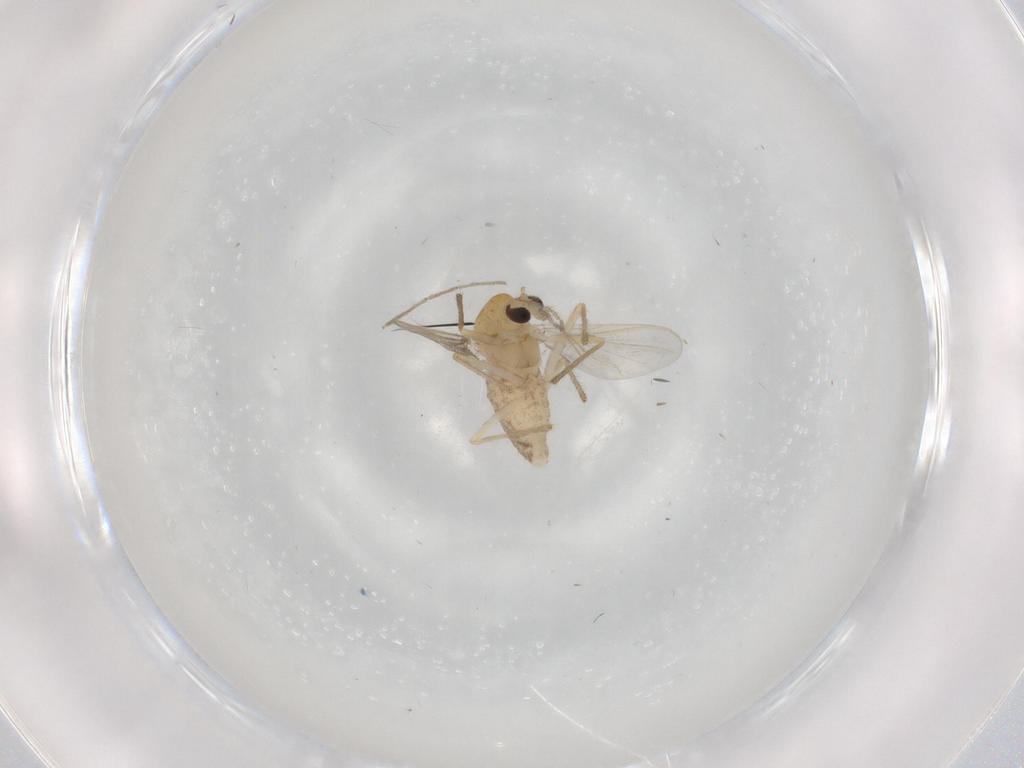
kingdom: Animalia
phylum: Arthropoda
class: Insecta
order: Diptera
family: Chironomidae
